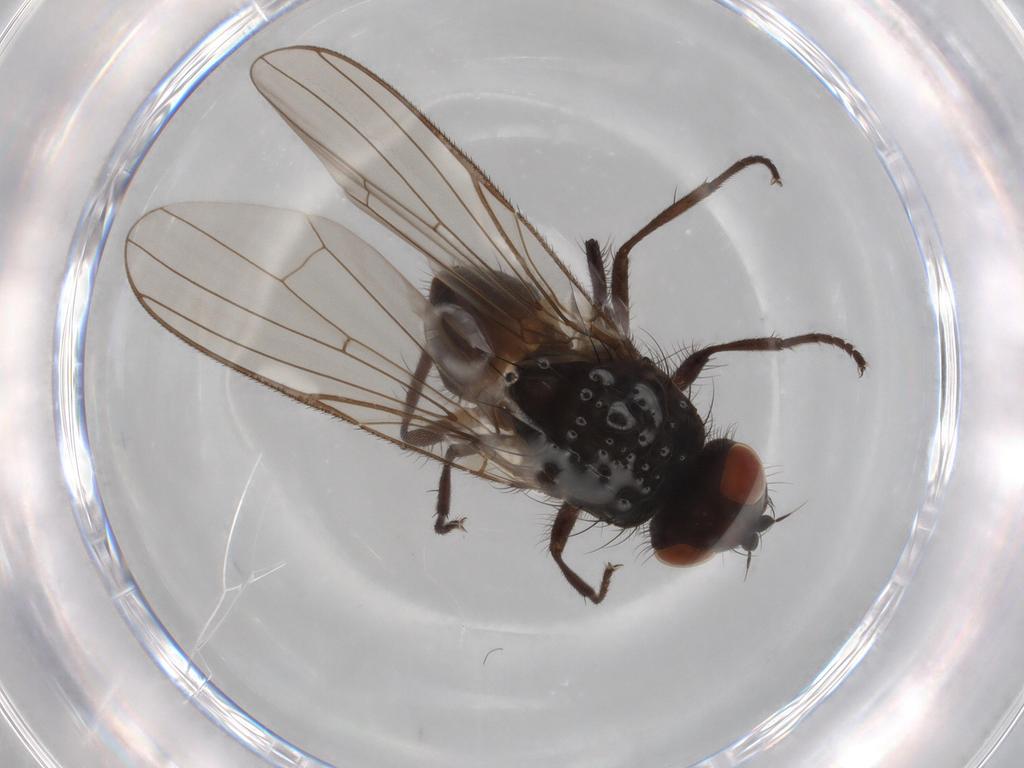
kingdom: Animalia
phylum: Arthropoda
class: Insecta
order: Diptera
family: Anthomyiidae
